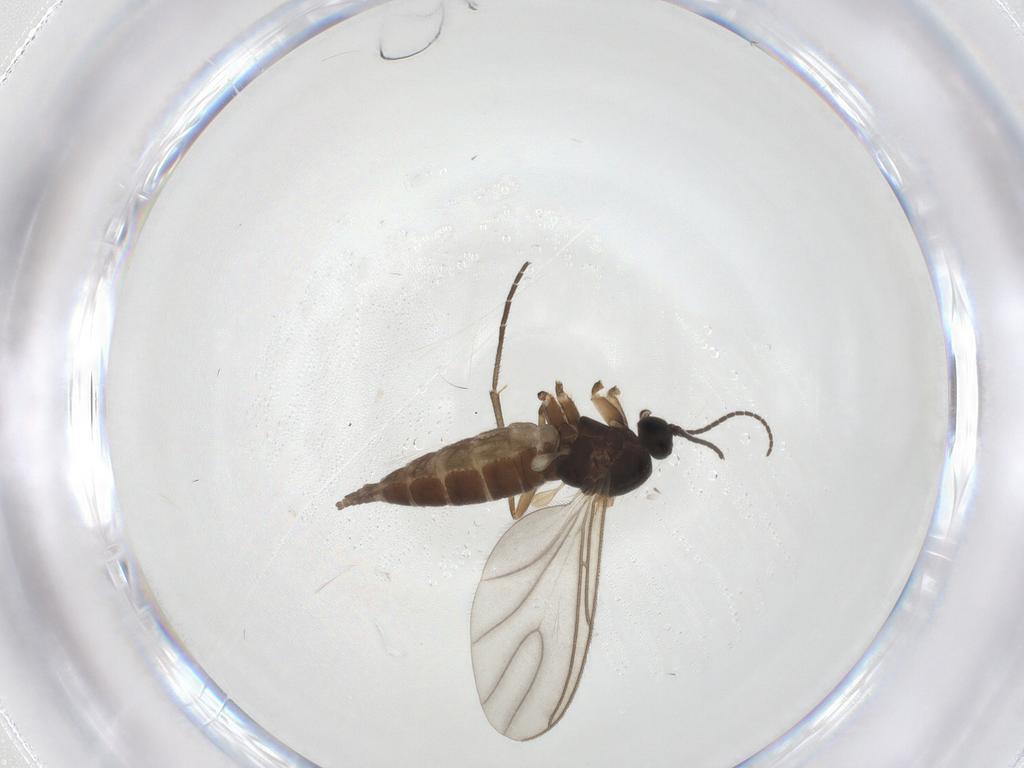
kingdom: Animalia
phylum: Arthropoda
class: Insecta
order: Diptera
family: Sciaridae
